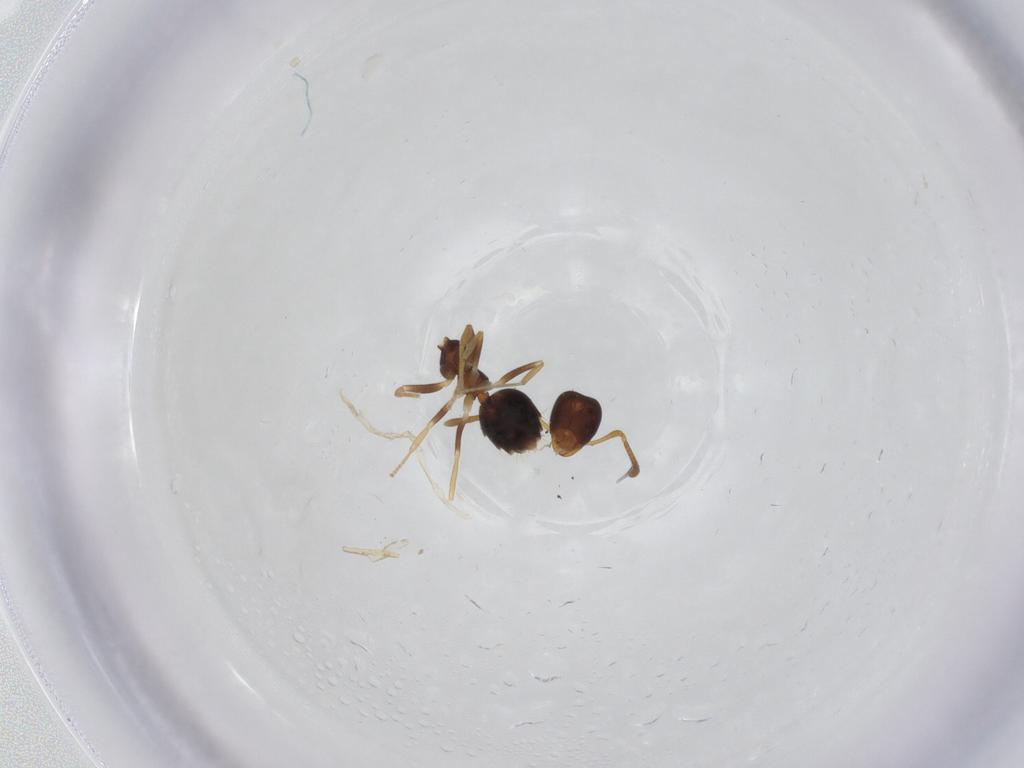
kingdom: Animalia
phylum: Arthropoda
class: Insecta
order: Hymenoptera
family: Formicidae
